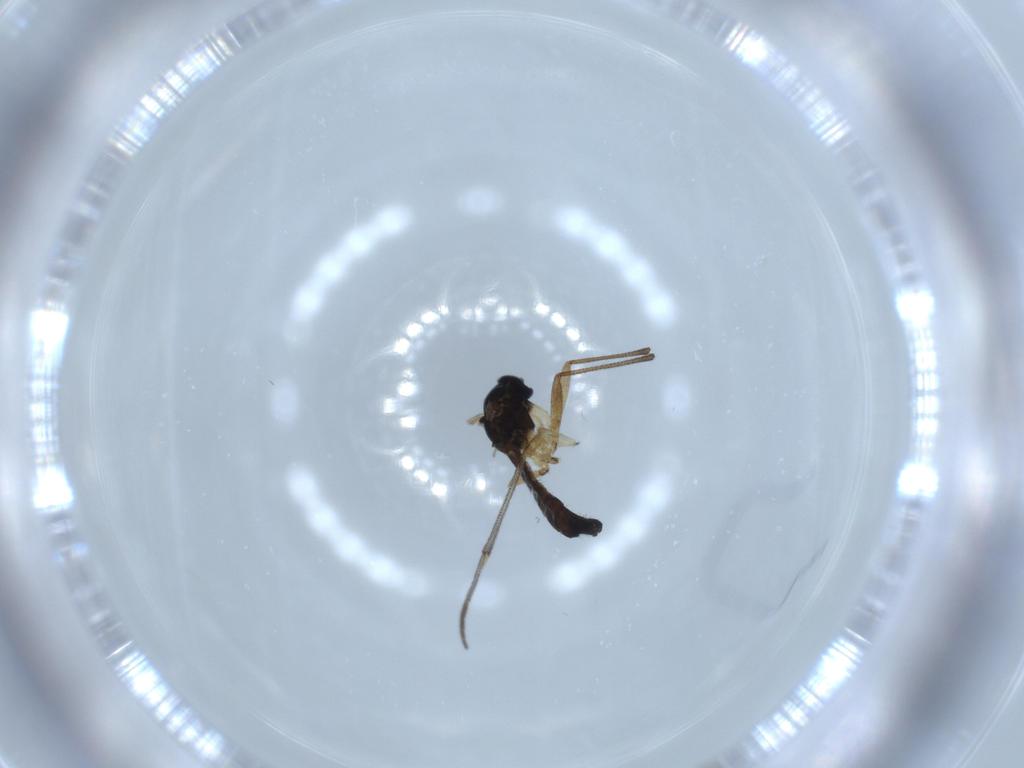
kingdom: Animalia
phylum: Arthropoda
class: Insecta
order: Diptera
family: Sciaridae
